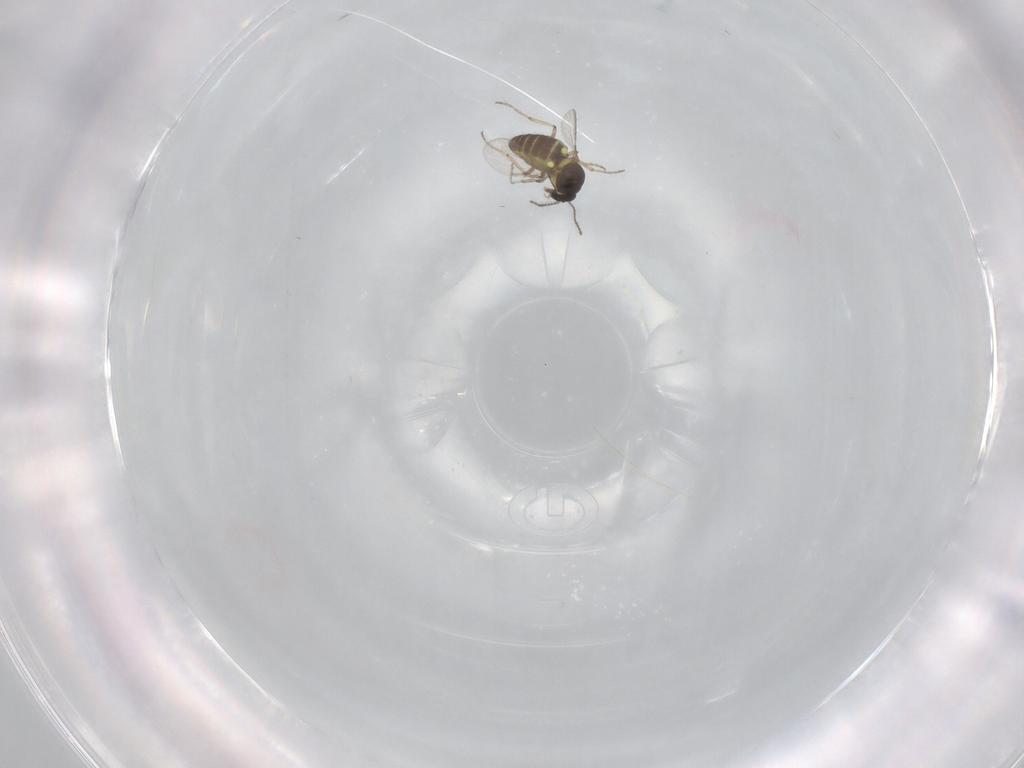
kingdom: Animalia
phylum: Arthropoda
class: Insecta
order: Diptera
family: Ceratopogonidae
